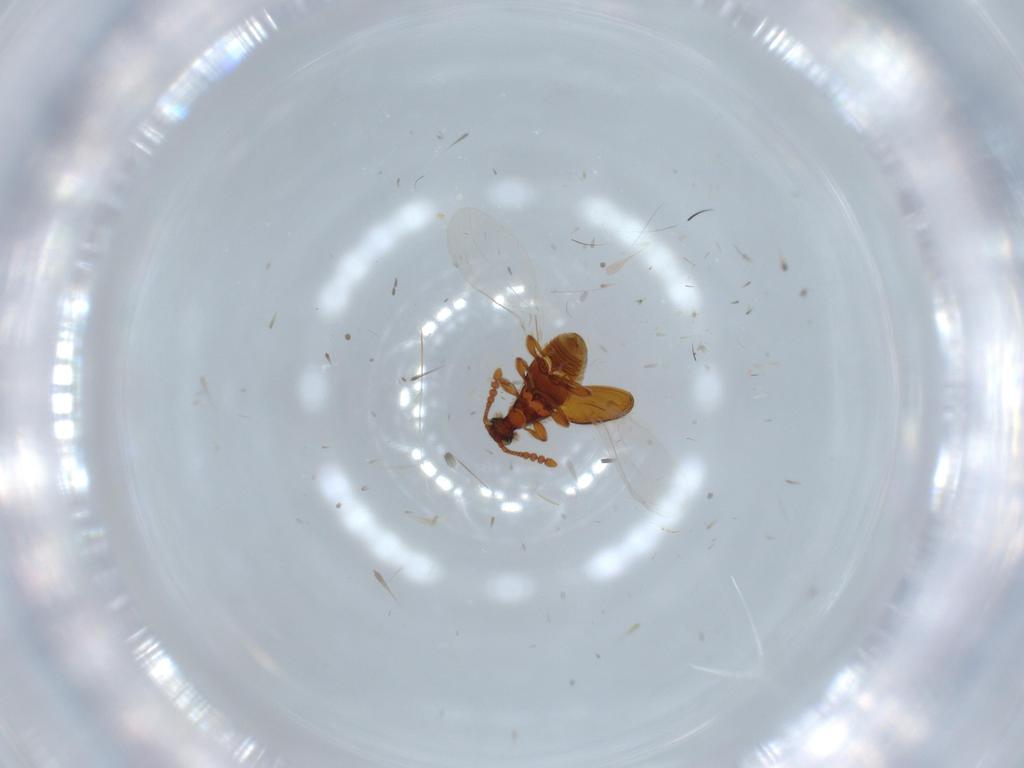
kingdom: Animalia
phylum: Arthropoda
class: Insecta
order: Coleoptera
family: Staphylinidae
